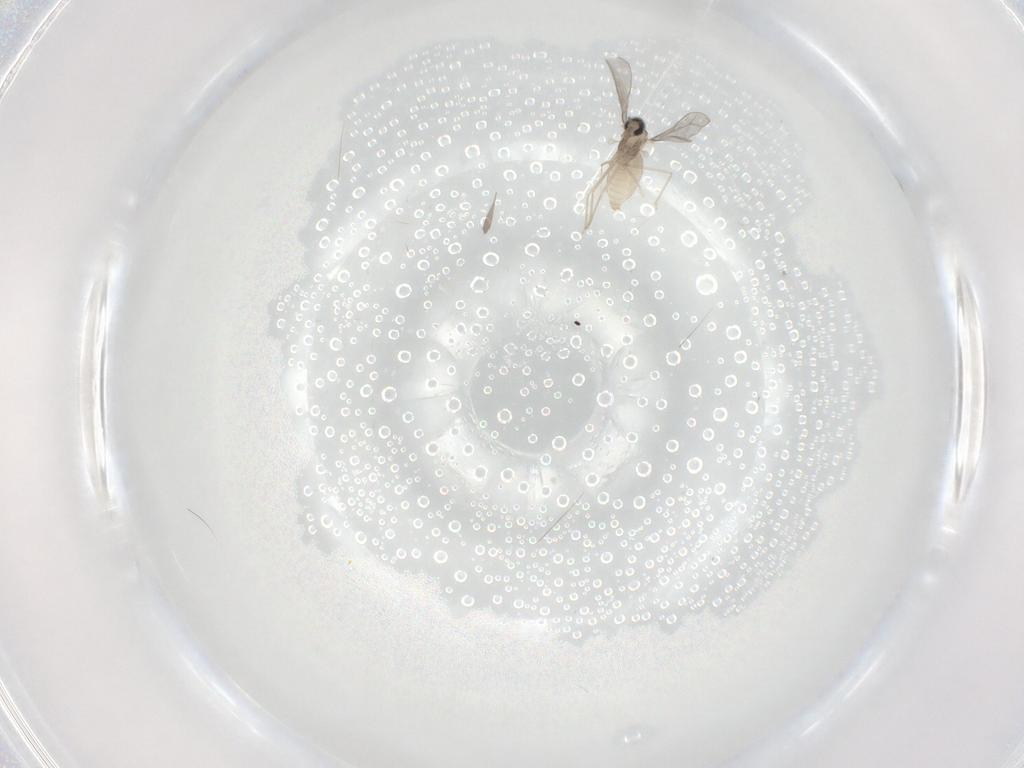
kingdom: Animalia
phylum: Arthropoda
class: Insecta
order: Diptera
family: Cecidomyiidae
